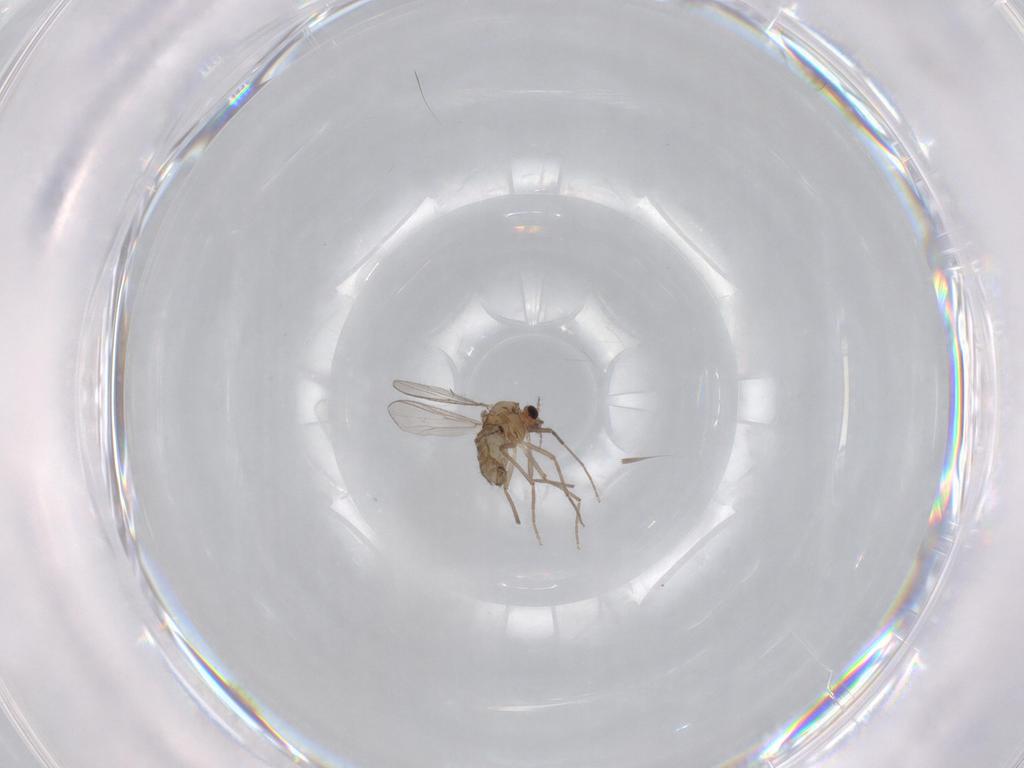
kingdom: Animalia
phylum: Arthropoda
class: Insecta
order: Diptera
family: Chironomidae
